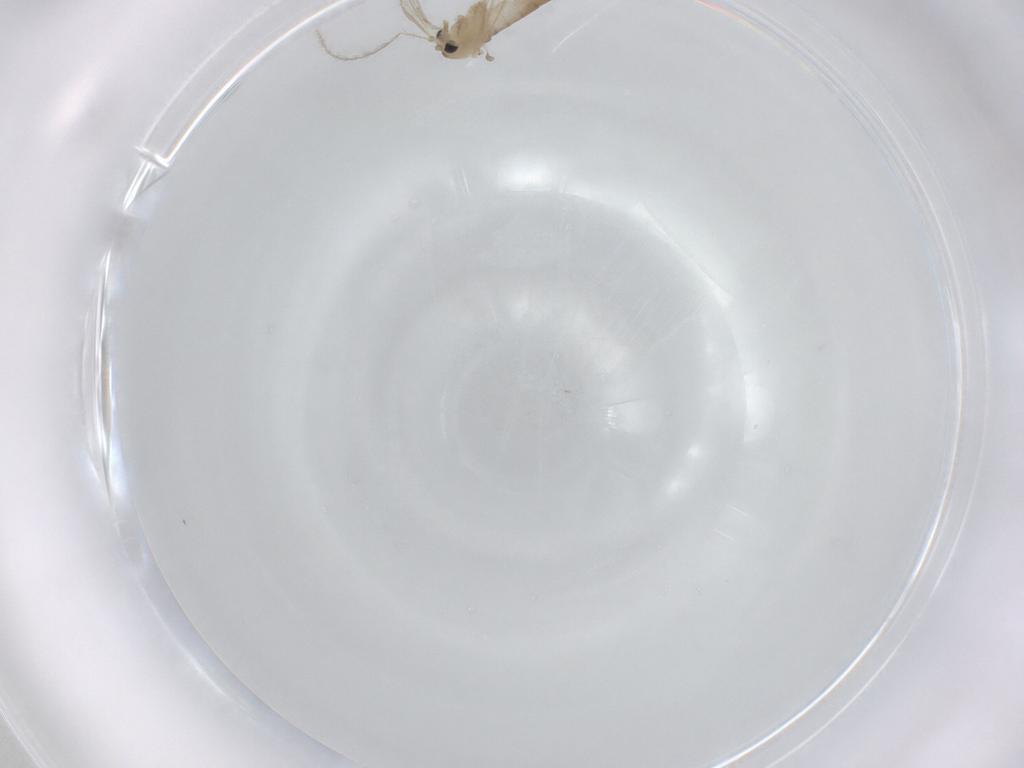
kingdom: Animalia
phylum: Arthropoda
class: Insecta
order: Diptera
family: Psychodidae
